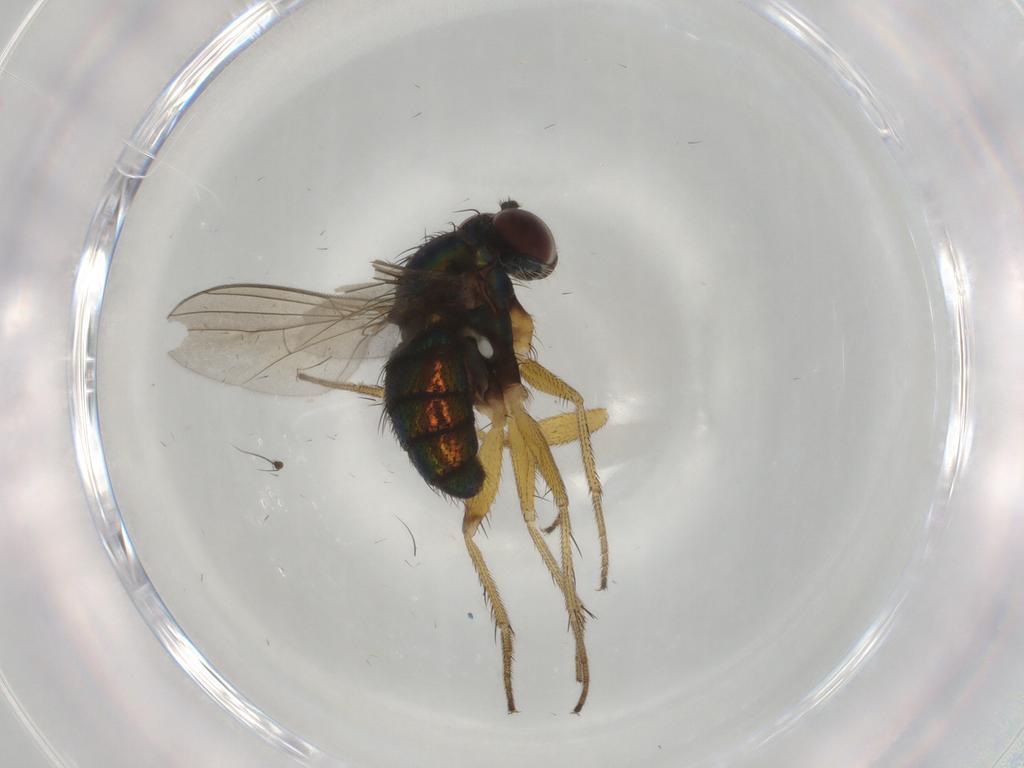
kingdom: Animalia
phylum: Arthropoda
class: Insecta
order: Diptera
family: Dolichopodidae
